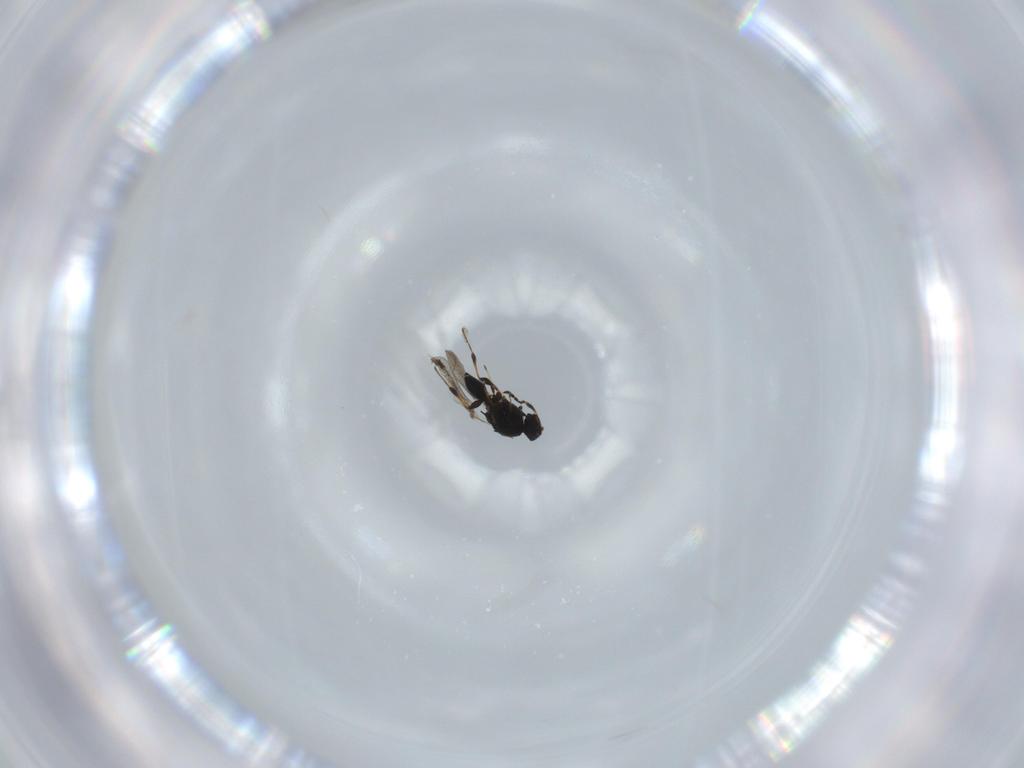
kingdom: Animalia
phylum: Arthropoda
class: Insecta
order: Hymenoptera
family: Platygastridae
